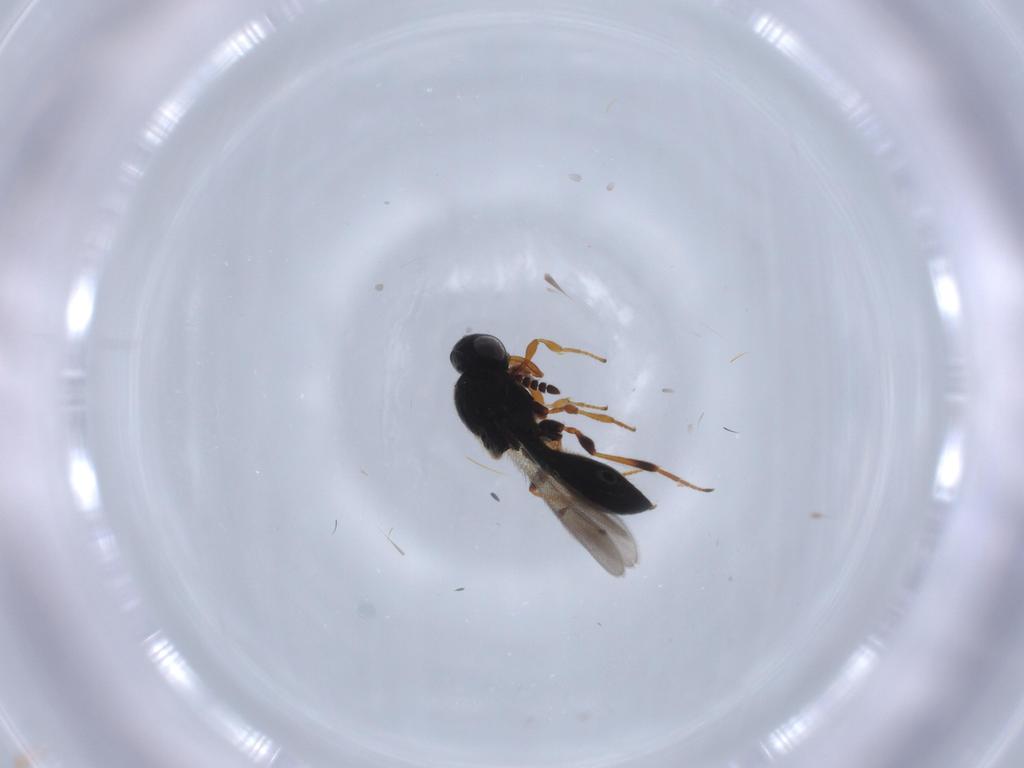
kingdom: Animalia
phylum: Arthropoda
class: Insecta
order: Hymenoptera
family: Platygastridae
